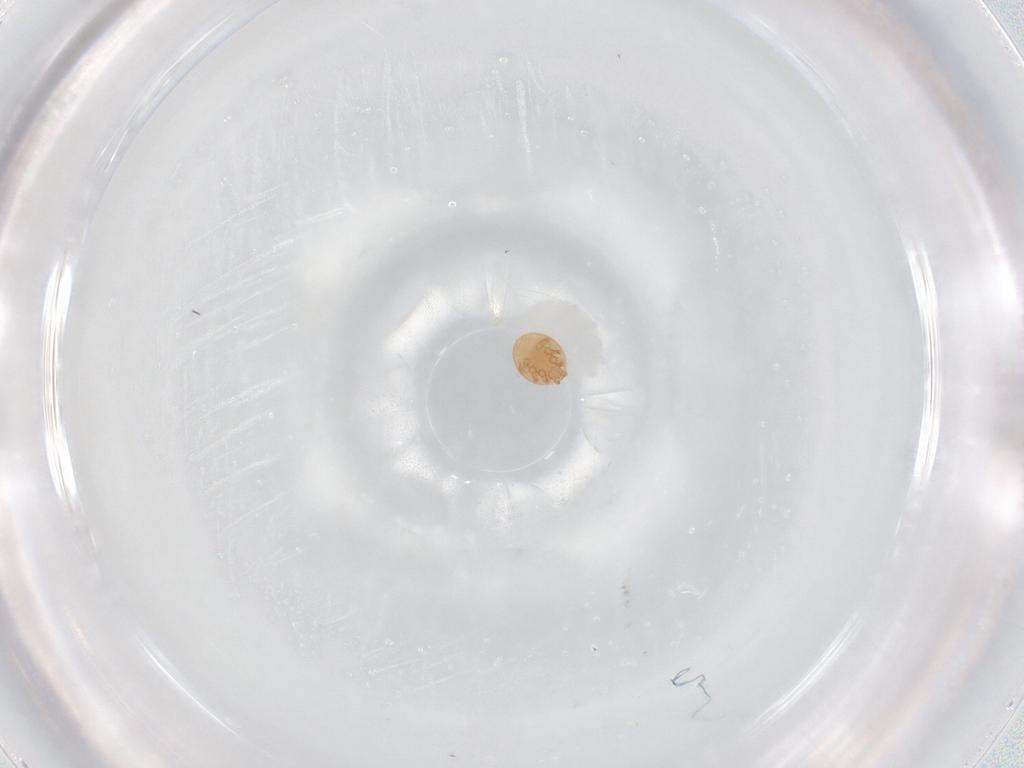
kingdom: Animalia
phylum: Arthropoda
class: Arachnida
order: Mesostigmata
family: Trematuridae
